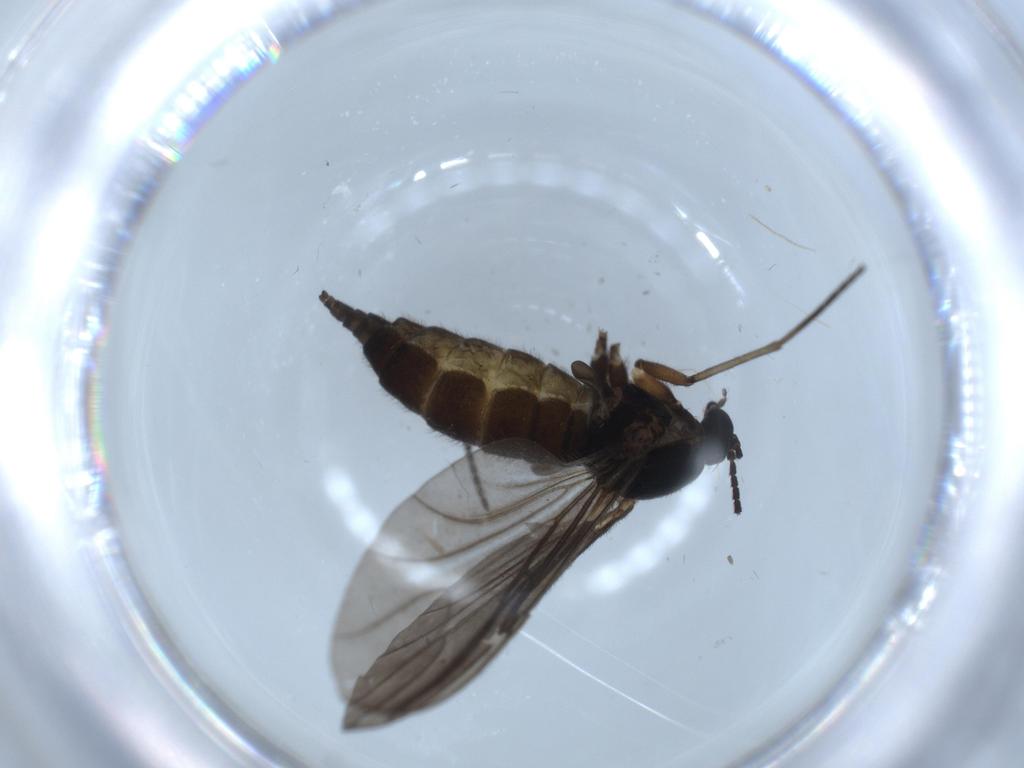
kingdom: Animalia
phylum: Arthropoda
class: Insecta
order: Diptera
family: Sciaridae
